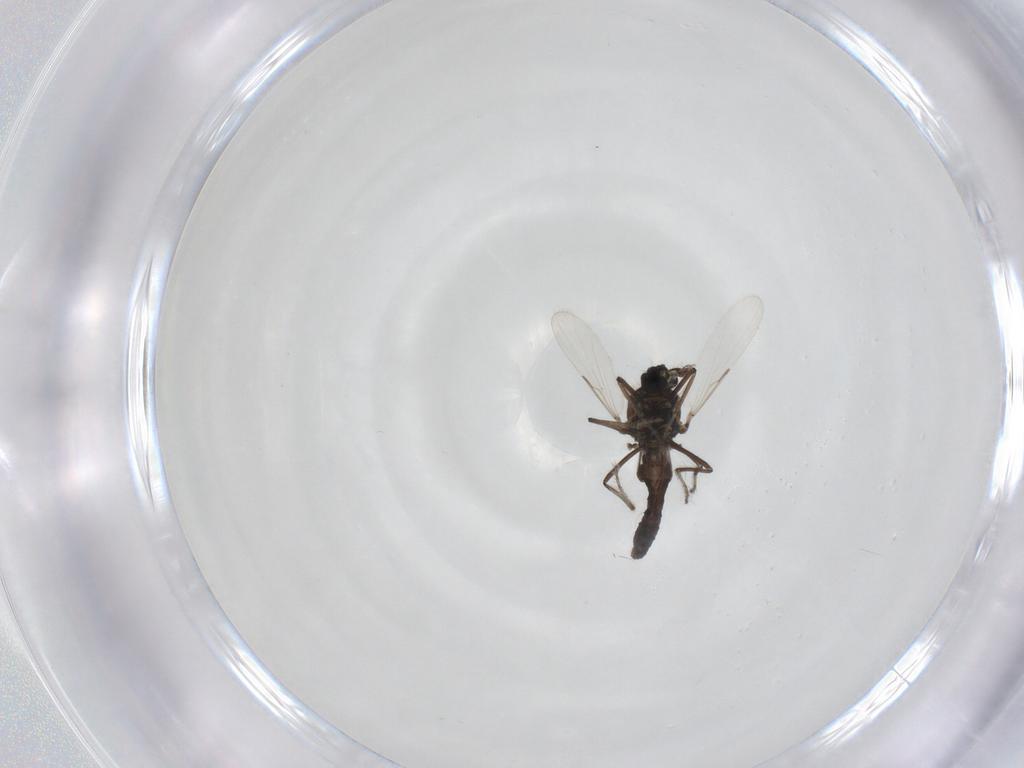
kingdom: Animalia
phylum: Arthropoda
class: Insecta
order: Diptera
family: Ceratopogonidae
